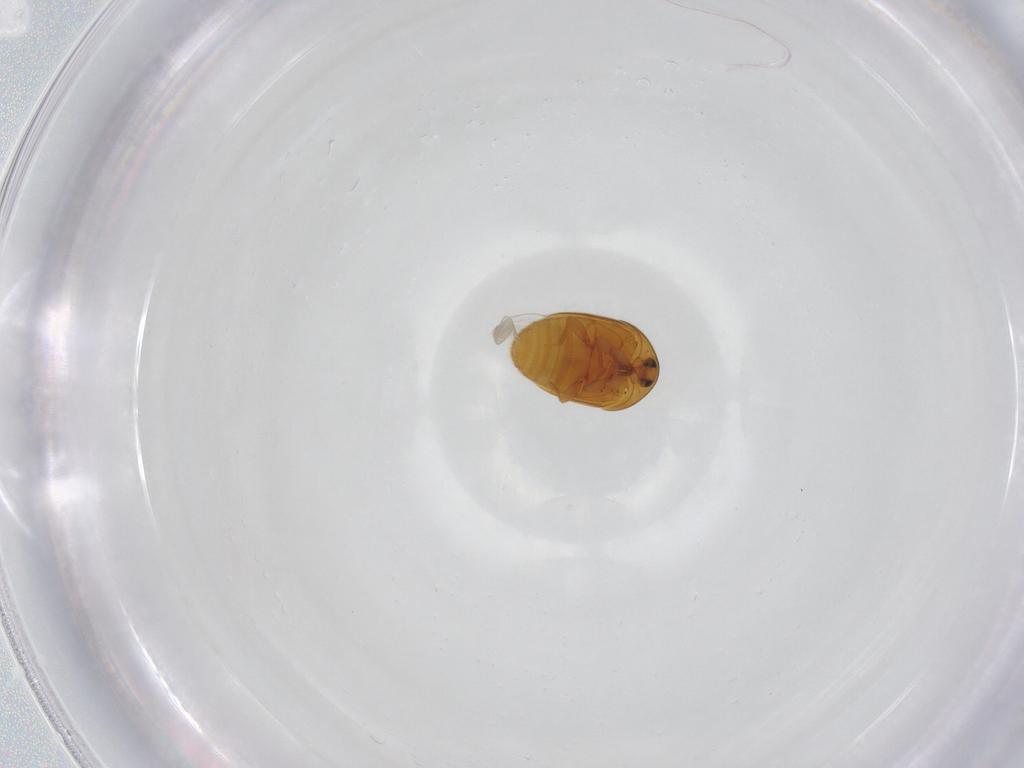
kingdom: Animalia
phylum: Arthropoda
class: Insecta
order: Coleoptera
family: Corylophidae
